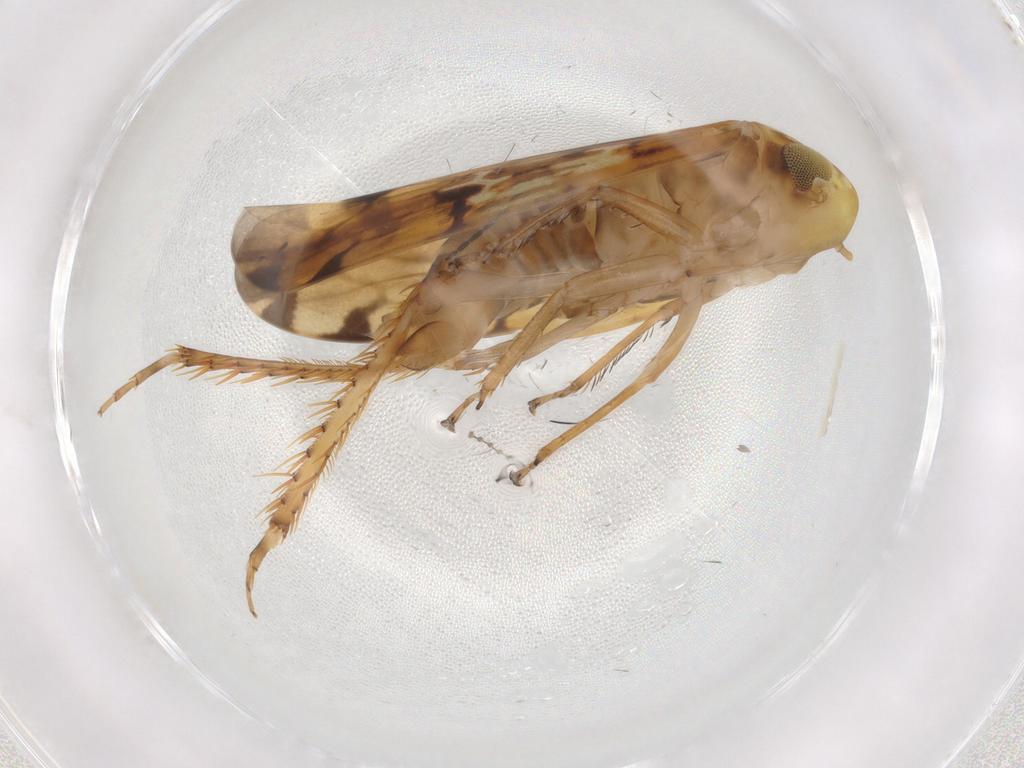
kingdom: Animalia
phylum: Arthropoda
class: Insecta
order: Hemiptera
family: Cicadellidae
